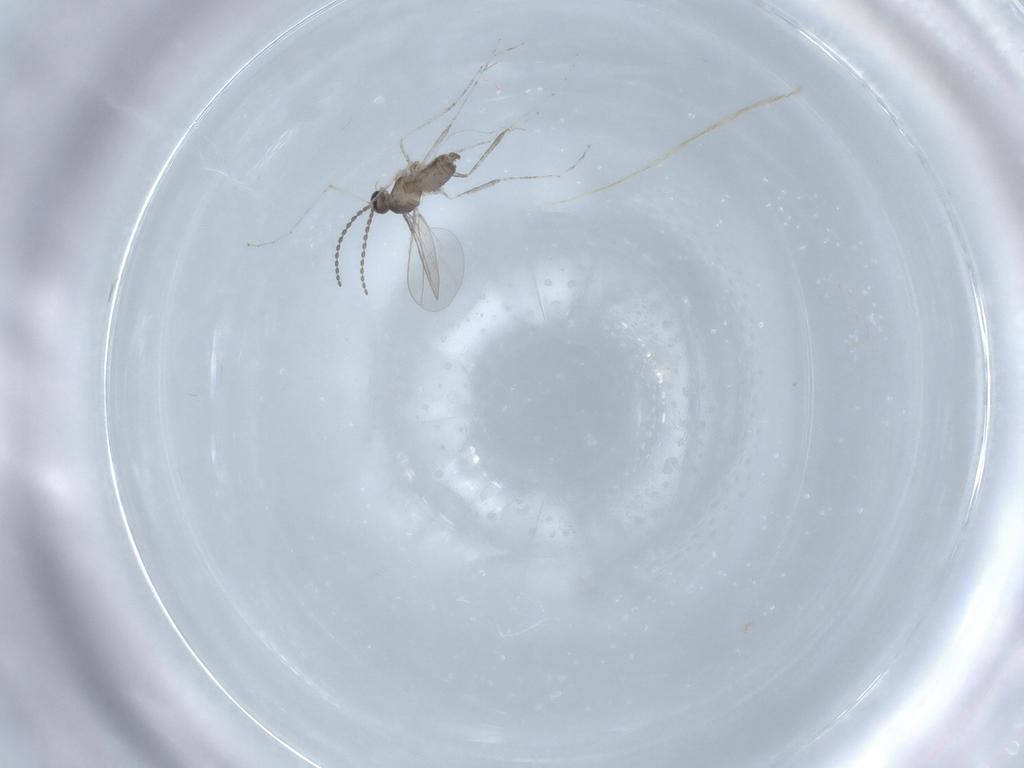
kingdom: Animalia
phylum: Arthropoda
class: Insecta
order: Diptera
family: Cecidomyiidae
